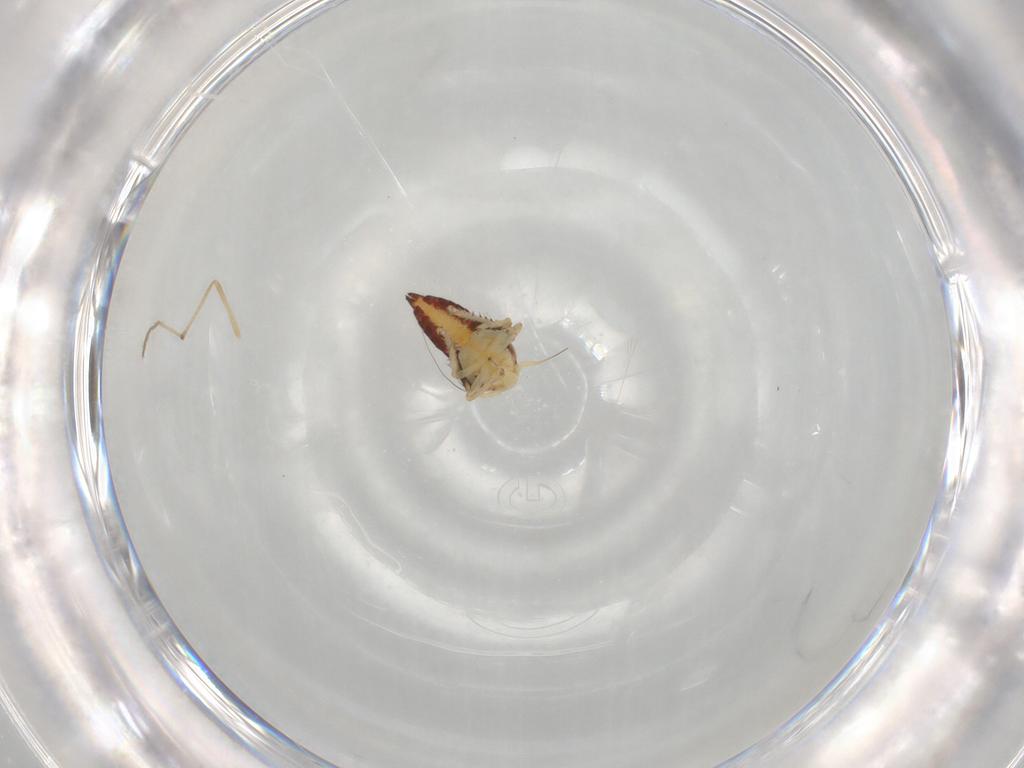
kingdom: Animalia
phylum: Arthropoda
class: Insecta
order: Hemiptera
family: Cicadellidae
